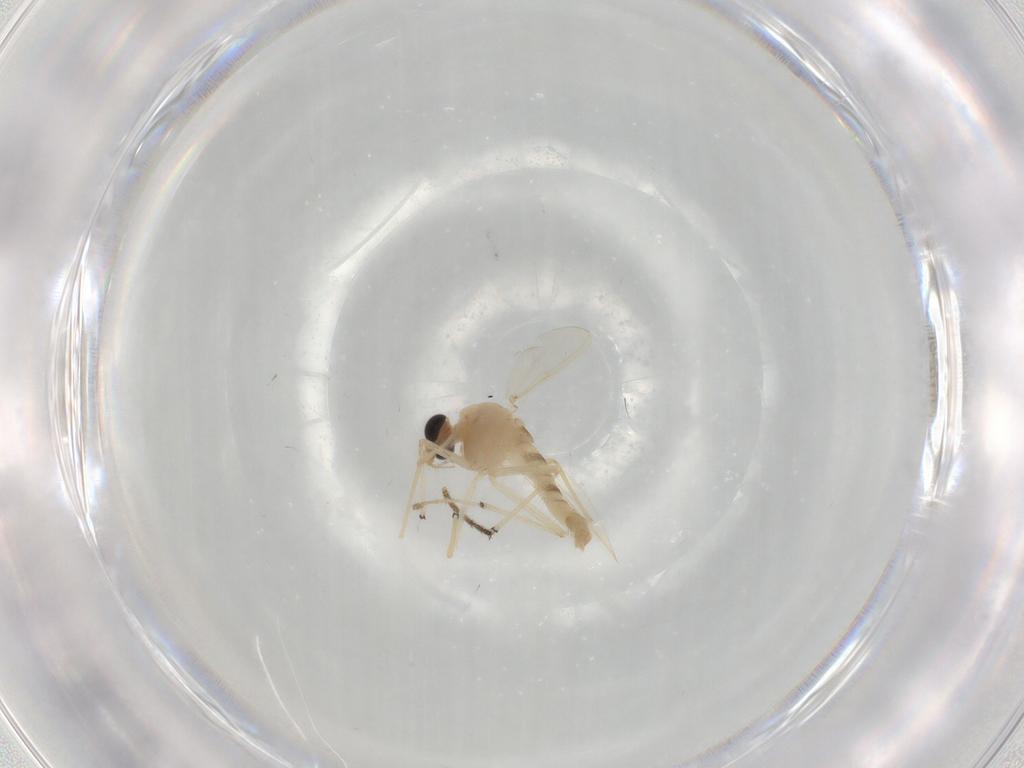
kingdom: Animalia
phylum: Arthropoda
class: Insecta
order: Diptera
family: Chironomidae
